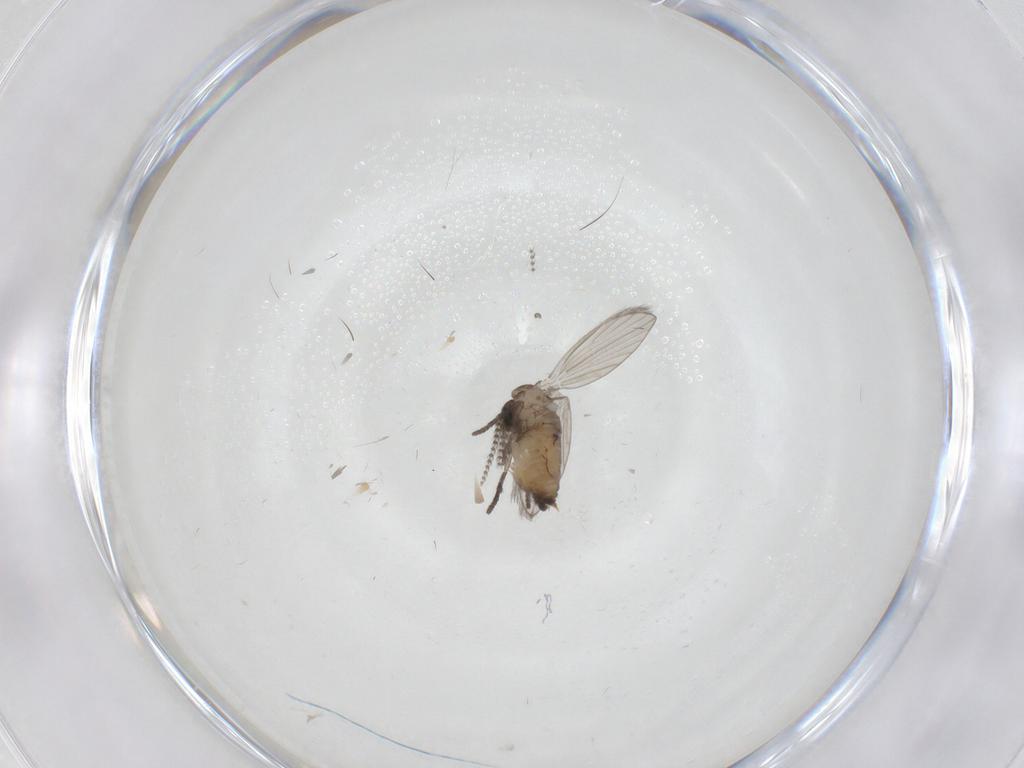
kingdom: Animalia
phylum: Arthropoda
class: Insecta
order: Diptera
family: Psychodidae
